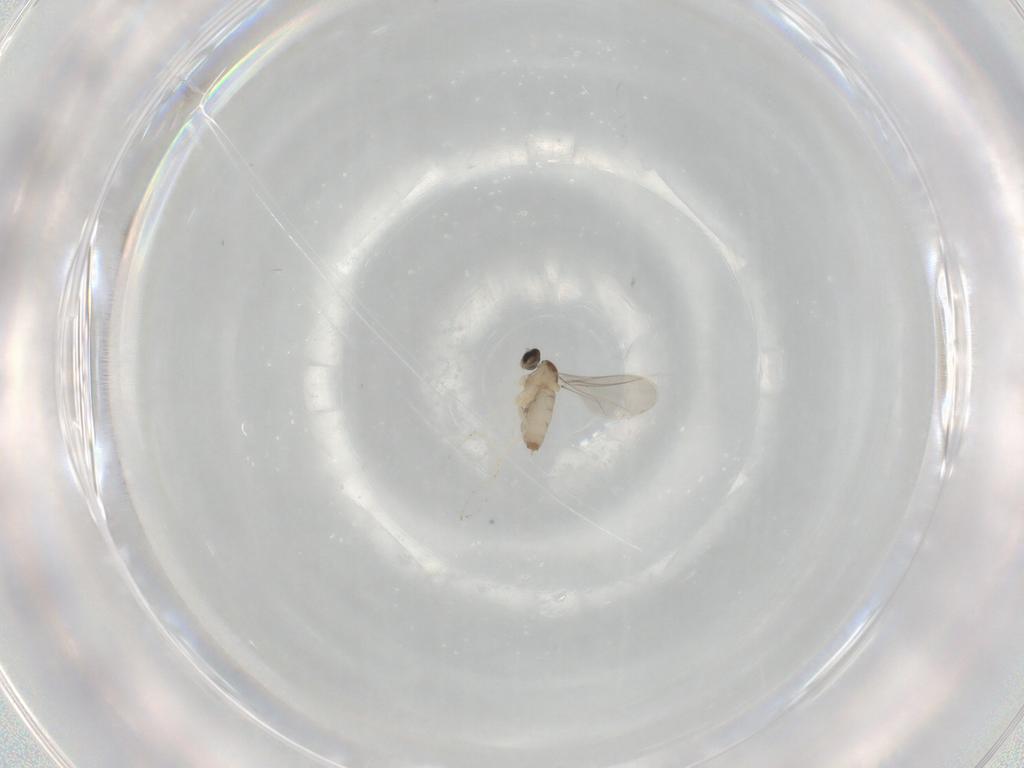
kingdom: Animalia
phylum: Arthropoda
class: Insecta
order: Diptera
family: Cecidomyiidae
